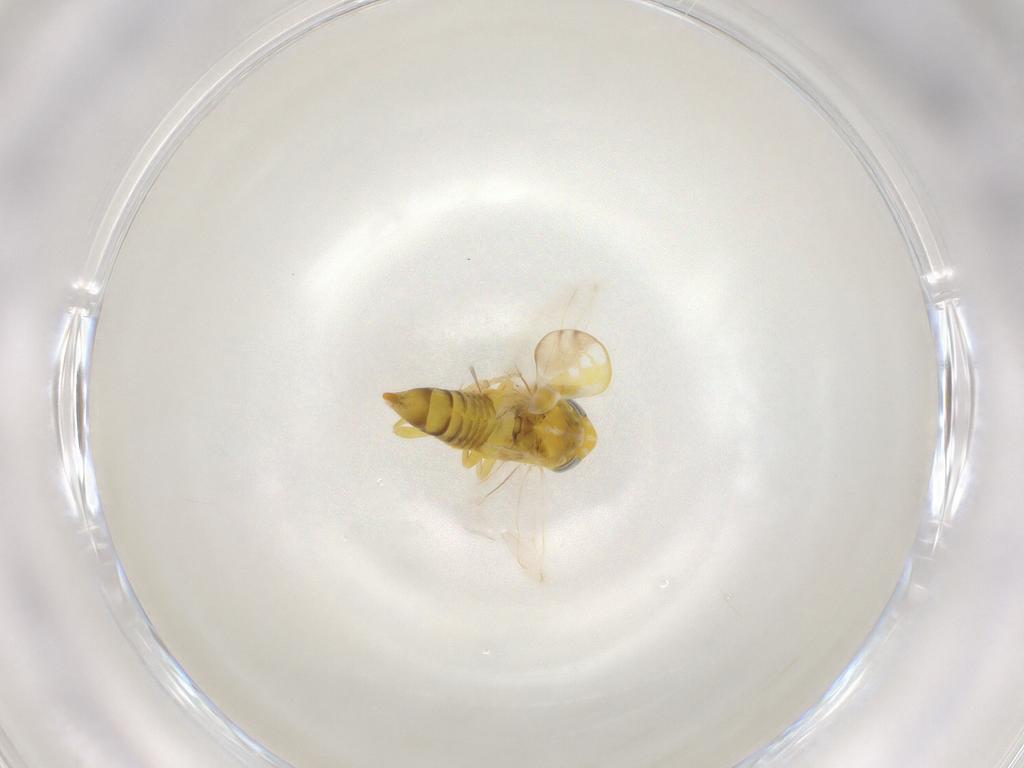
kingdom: Animalia
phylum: Arthropoda
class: Insecta
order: Hemiptera
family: Cicadellidae
